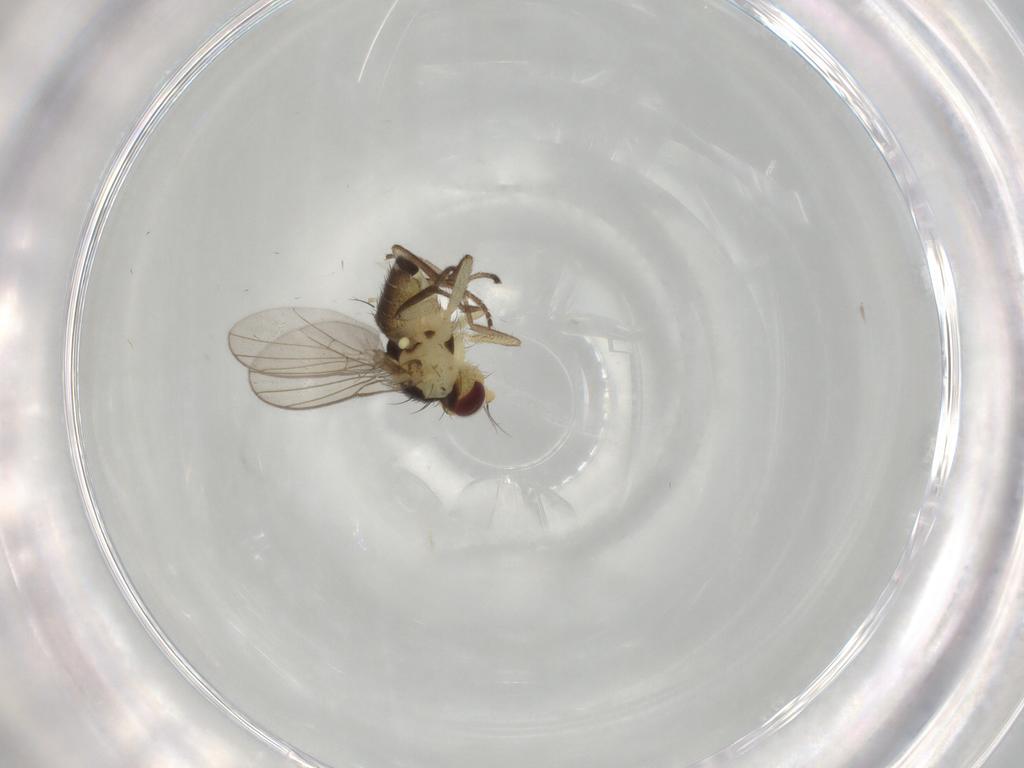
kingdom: Animalia
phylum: Arthropoda
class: Insecta
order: Diptera
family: Agromyzidae
